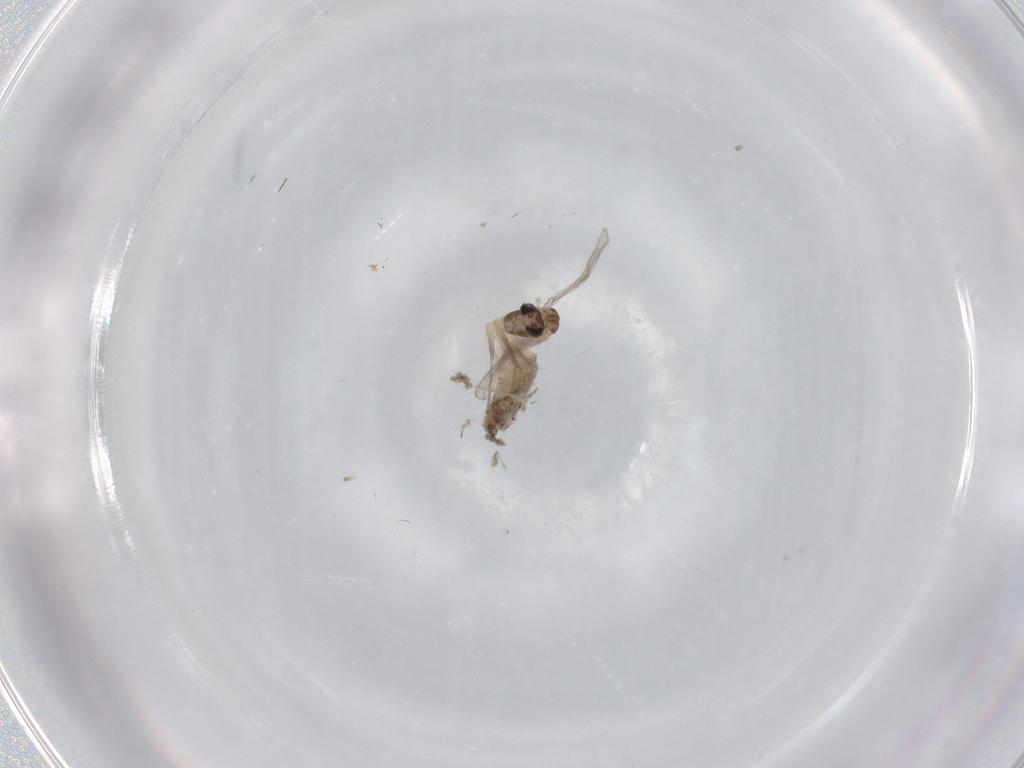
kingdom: Animalia
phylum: Arthropoda
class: Insecta
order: Diptera
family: Chironomidae
